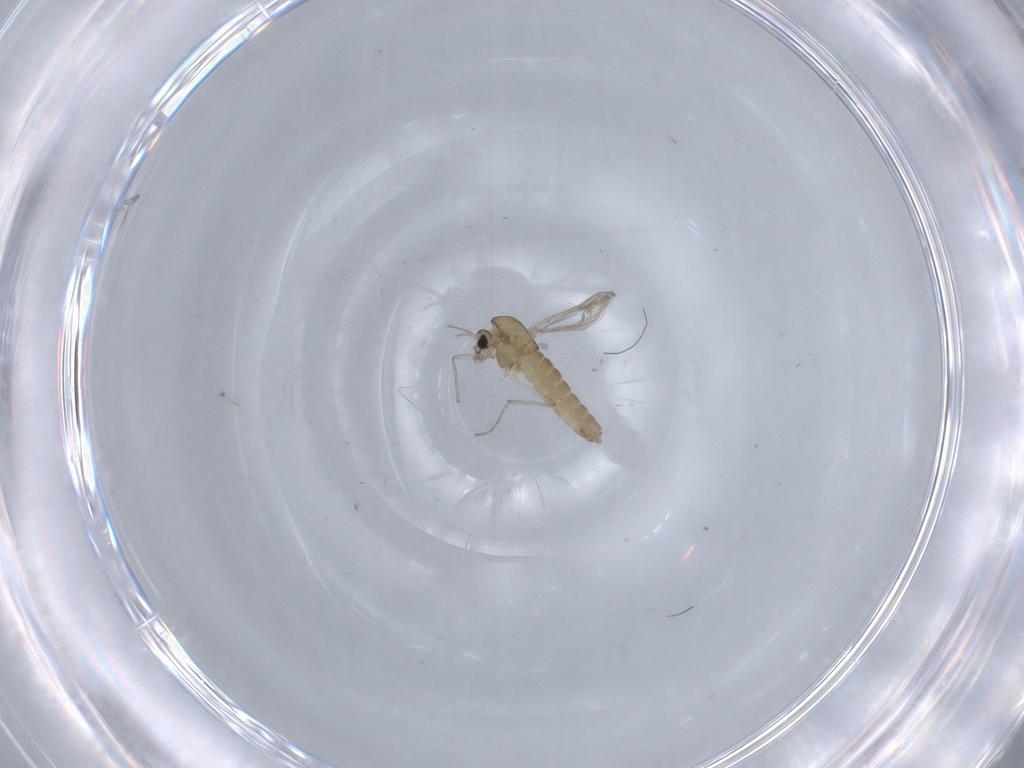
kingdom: Animalia
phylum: Arthropoda
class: Insecta
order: Diptera
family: Chironomidae
